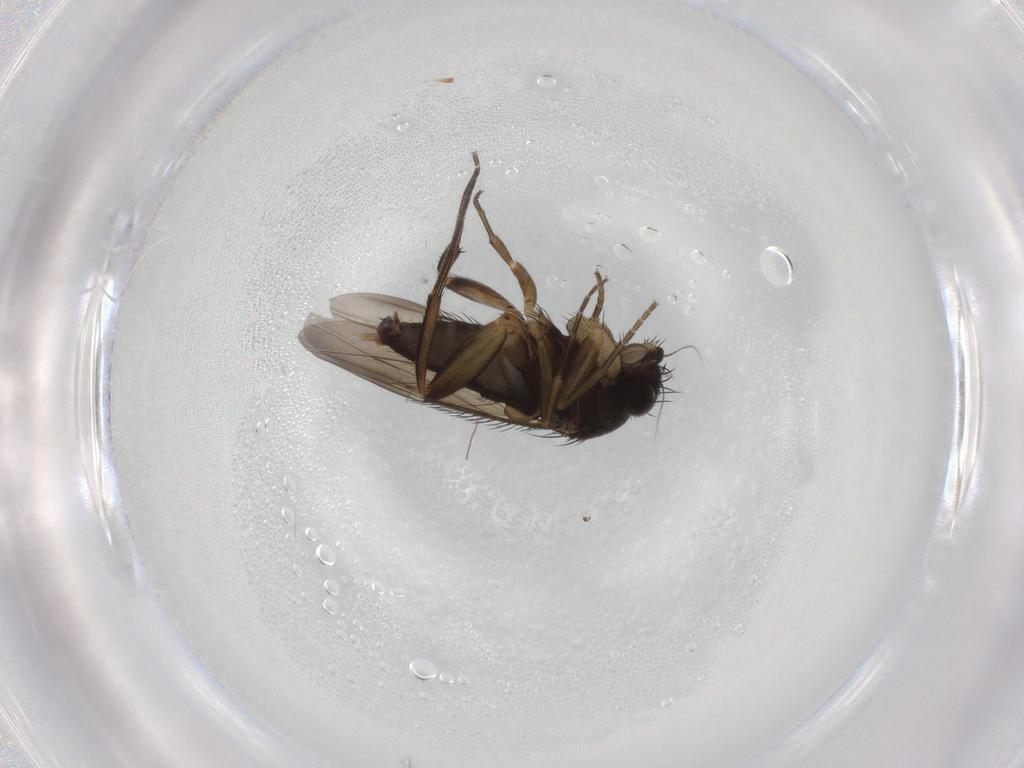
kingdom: Animalia
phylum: Arthropoda
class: Insecta
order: Diptera
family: Phoridae
